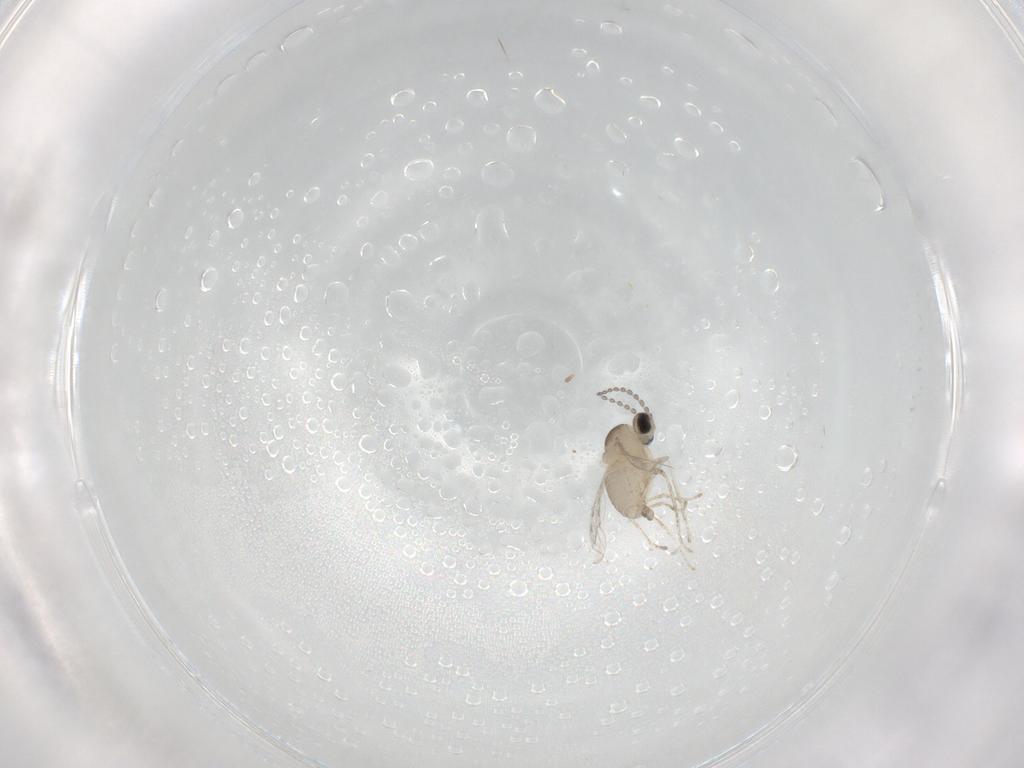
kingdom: Animalia
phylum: Arthropoda
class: Insecta
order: Diptera
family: Cecidomyiidae
